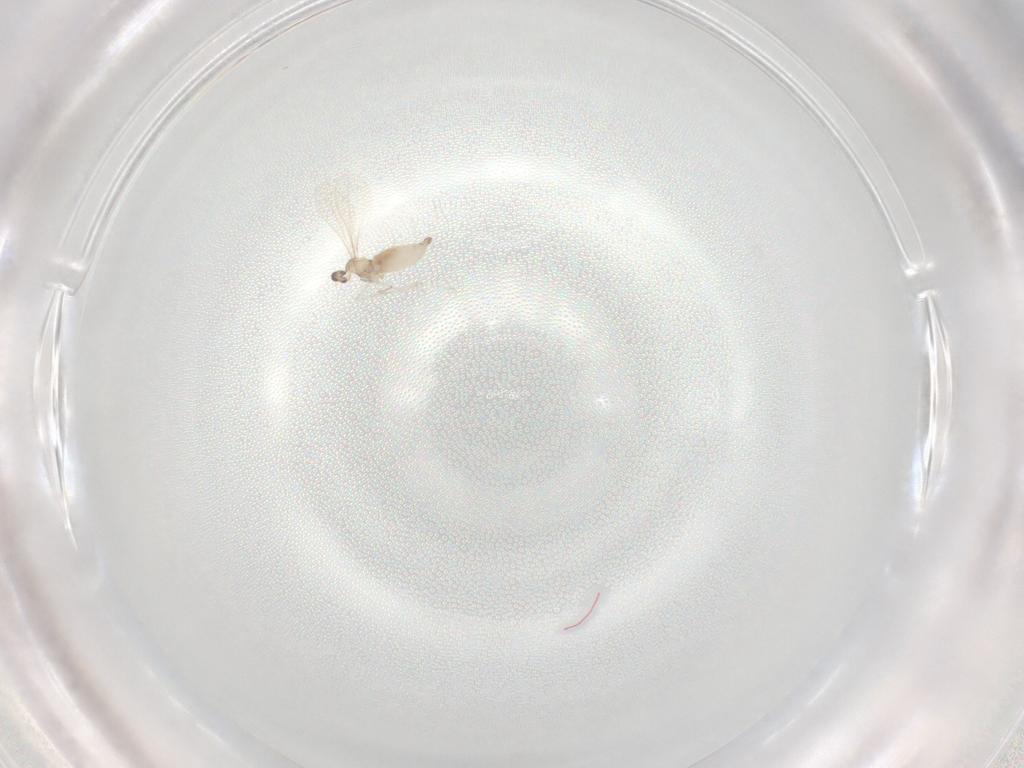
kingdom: Animalia
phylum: Arthropoda
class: Insecta
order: Diptera
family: Cecidomyiidae
